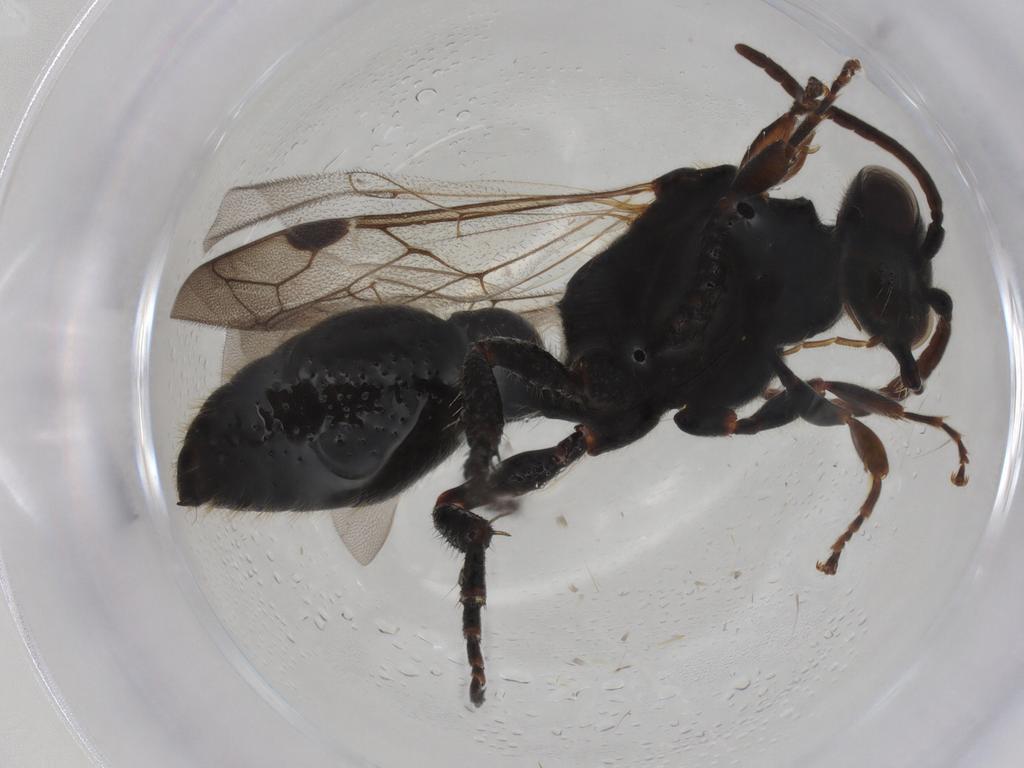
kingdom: Animalia
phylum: Arthropoda
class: Insecta
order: Hymenoptera
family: Tiphiidae
